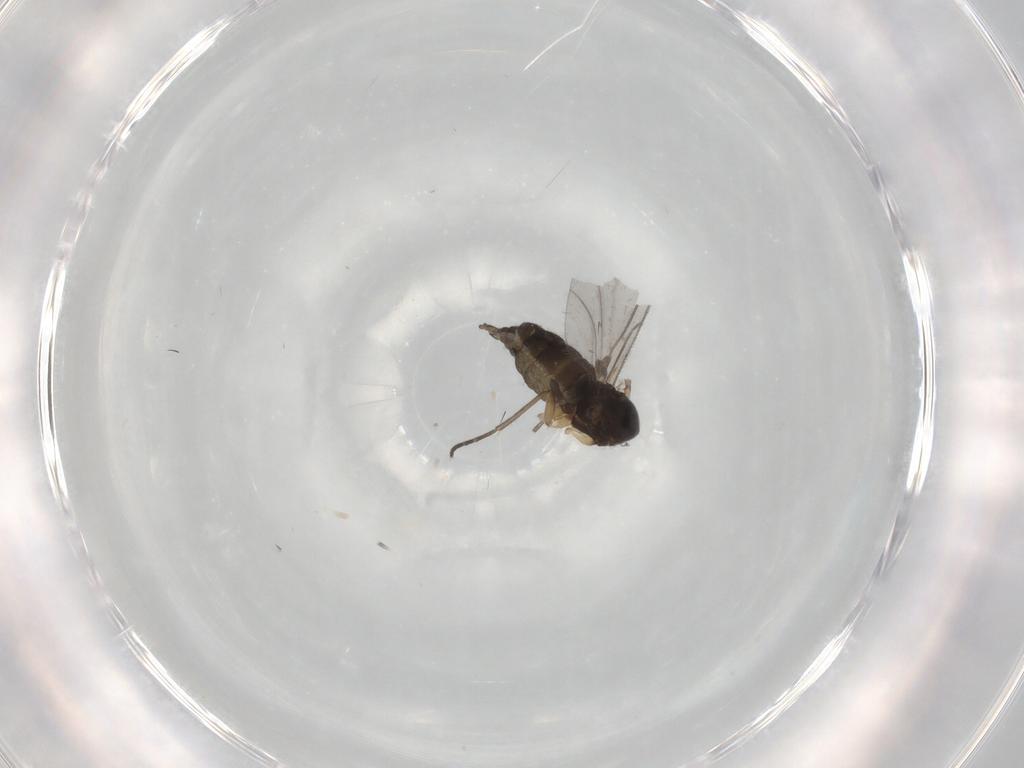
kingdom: Animalia
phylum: Arthropoda
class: Insecta
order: Diptera
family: Sciaridae
